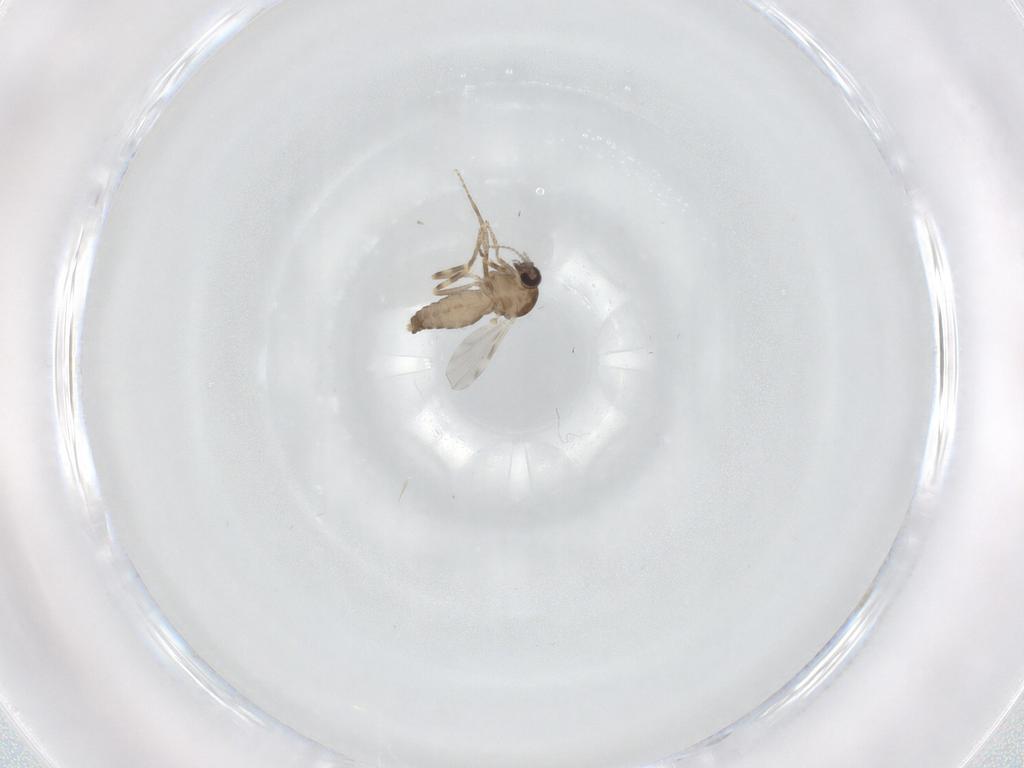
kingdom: Animalia
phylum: Arthropoda
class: Insecta
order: Diptera
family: Ceratopogonidae
